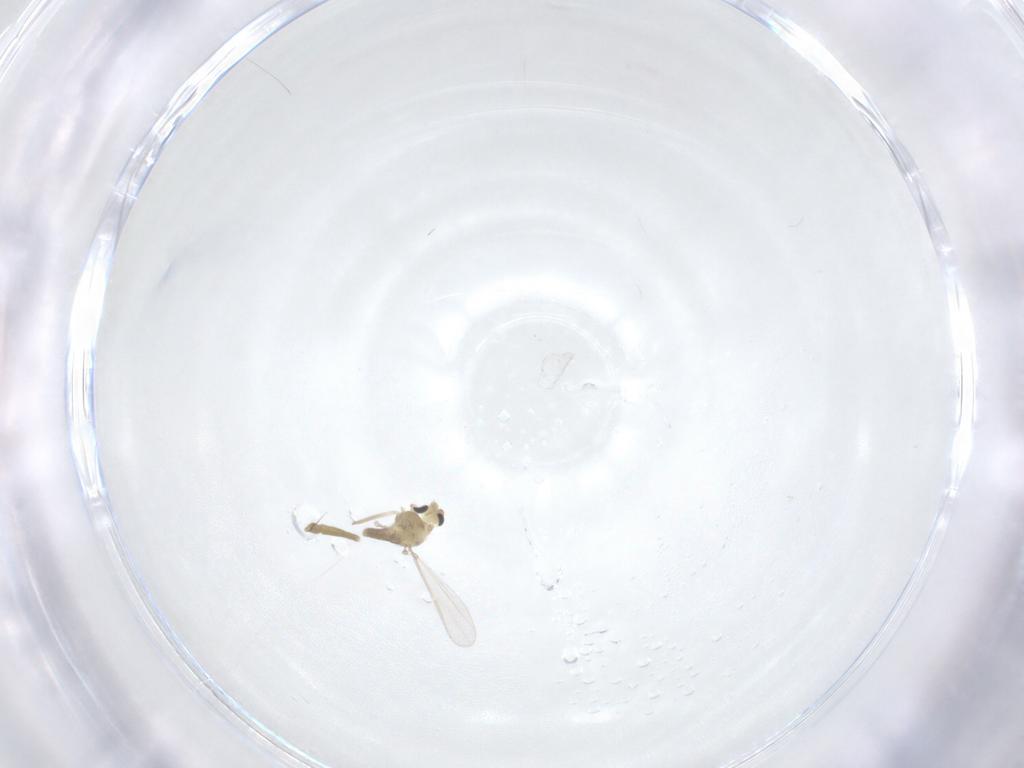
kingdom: Animalia
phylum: Arthropoda
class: Insecta
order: Diptera
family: Chironomidae
